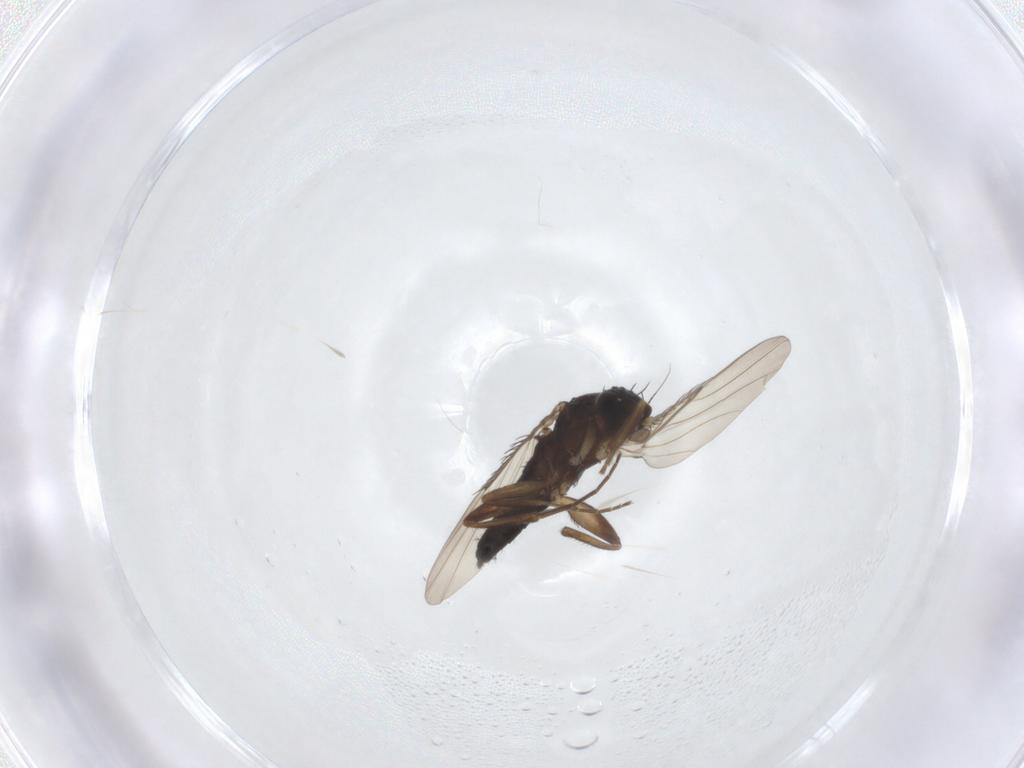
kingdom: Animalia
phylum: Arthropoda
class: Insecta
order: Diptera
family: Phoridae
